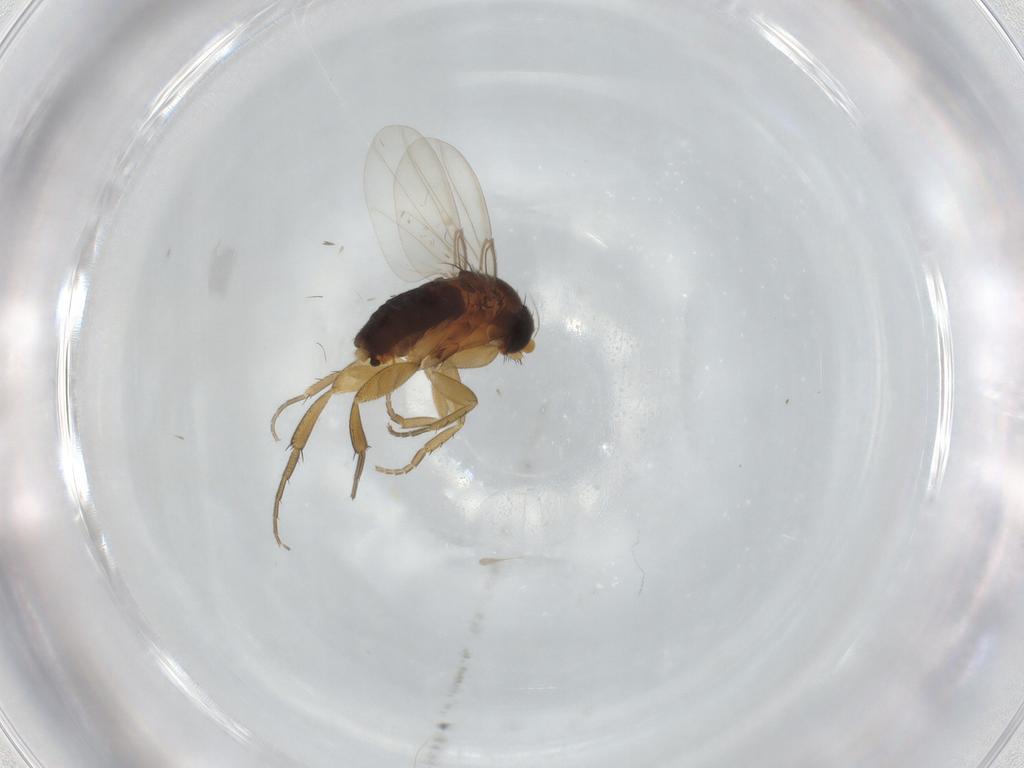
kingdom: Animalia
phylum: Arthropoda
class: Insecta
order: Diptera
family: Phoridae
